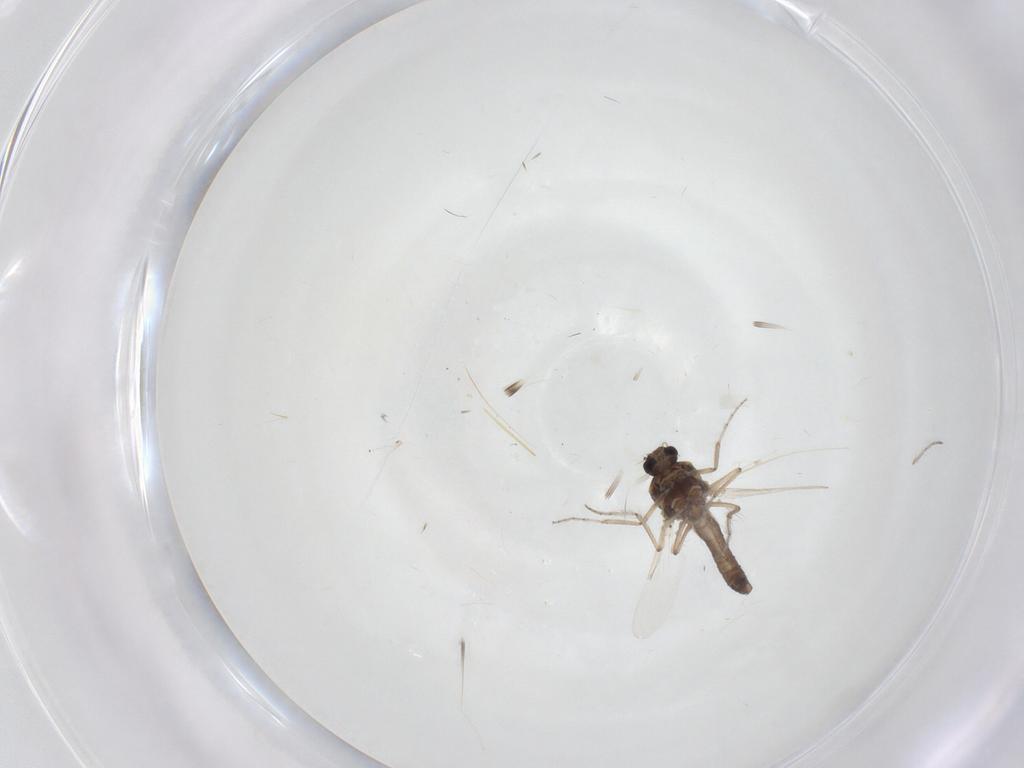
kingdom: Animalia
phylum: Arthropoda
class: Insecta
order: Diptera
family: Ceratopogonidae
